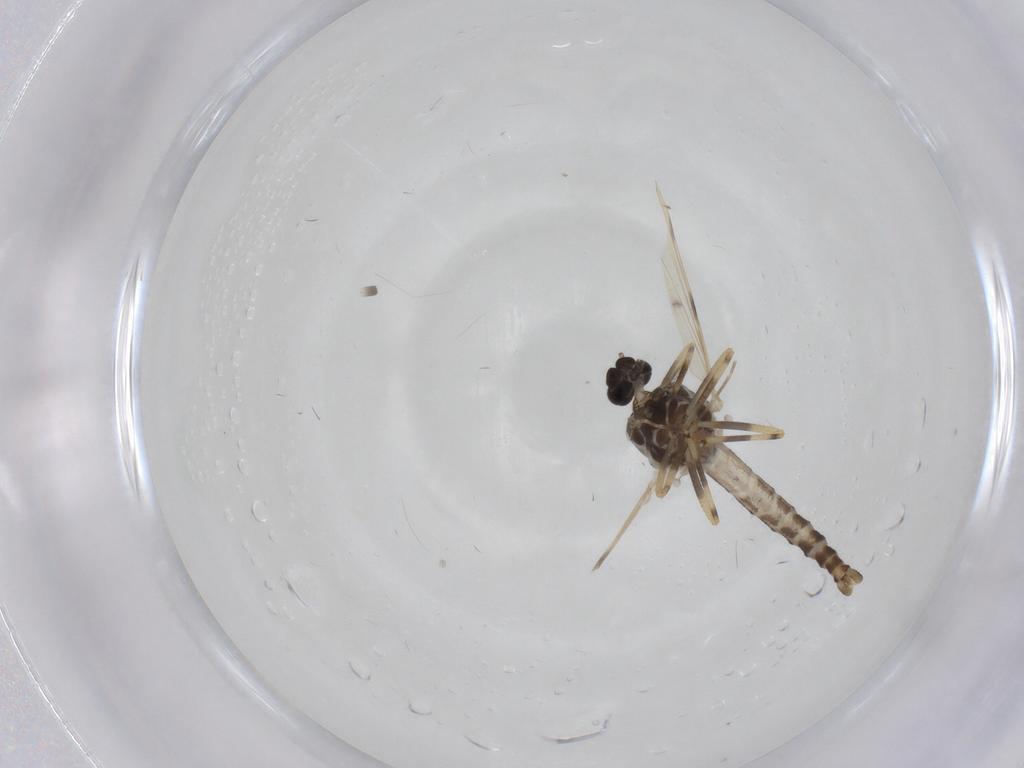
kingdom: Animalia
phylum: Arthropoda
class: Insecta
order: Diptera
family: Ceratopogonidae
